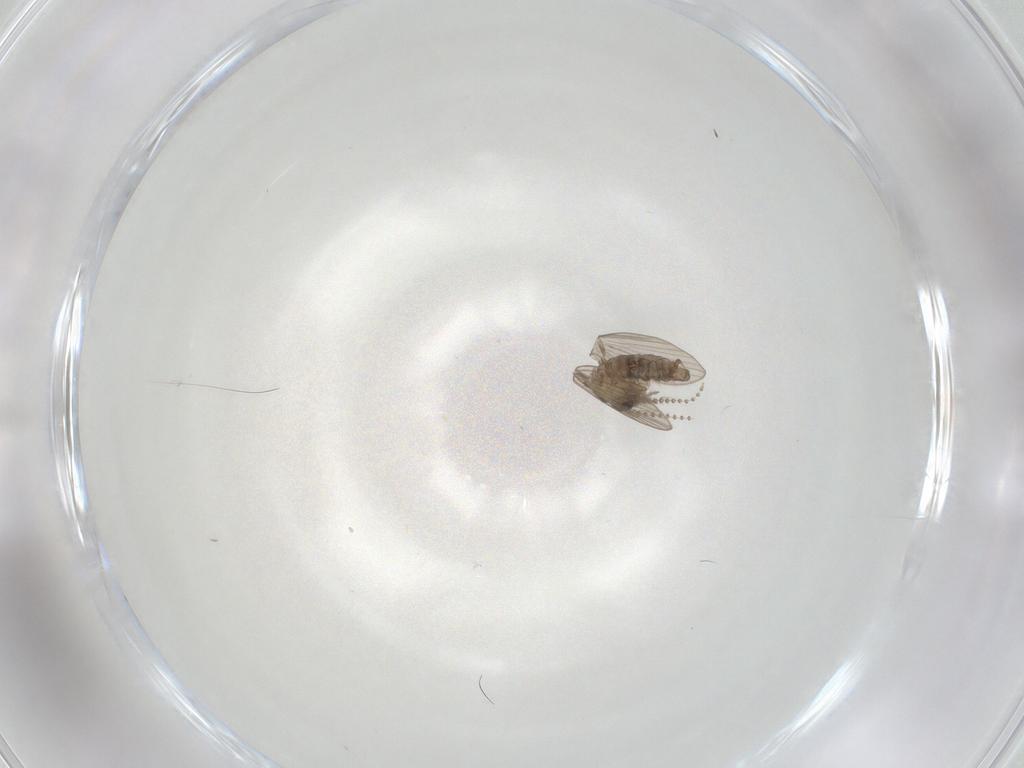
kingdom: Animalia
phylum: Arthropoda
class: Insecta
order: Diptera
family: Psychodidae
